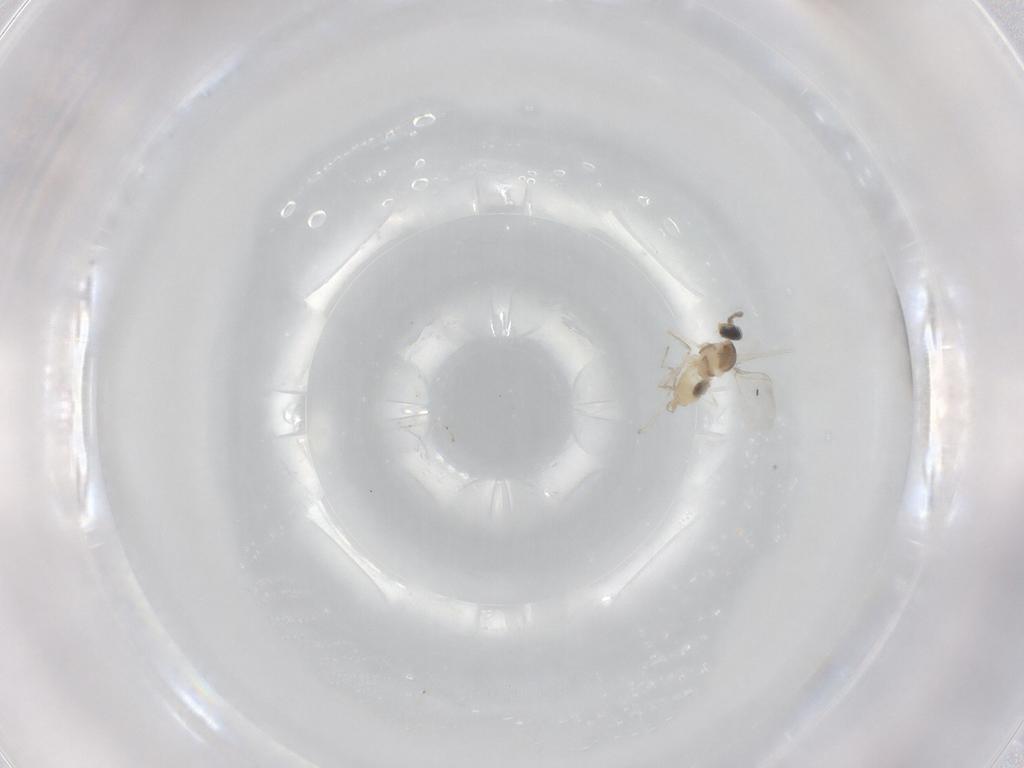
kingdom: Animalia
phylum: Arthropoda
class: Insecta
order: Diptera
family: Cecidomyiidae
